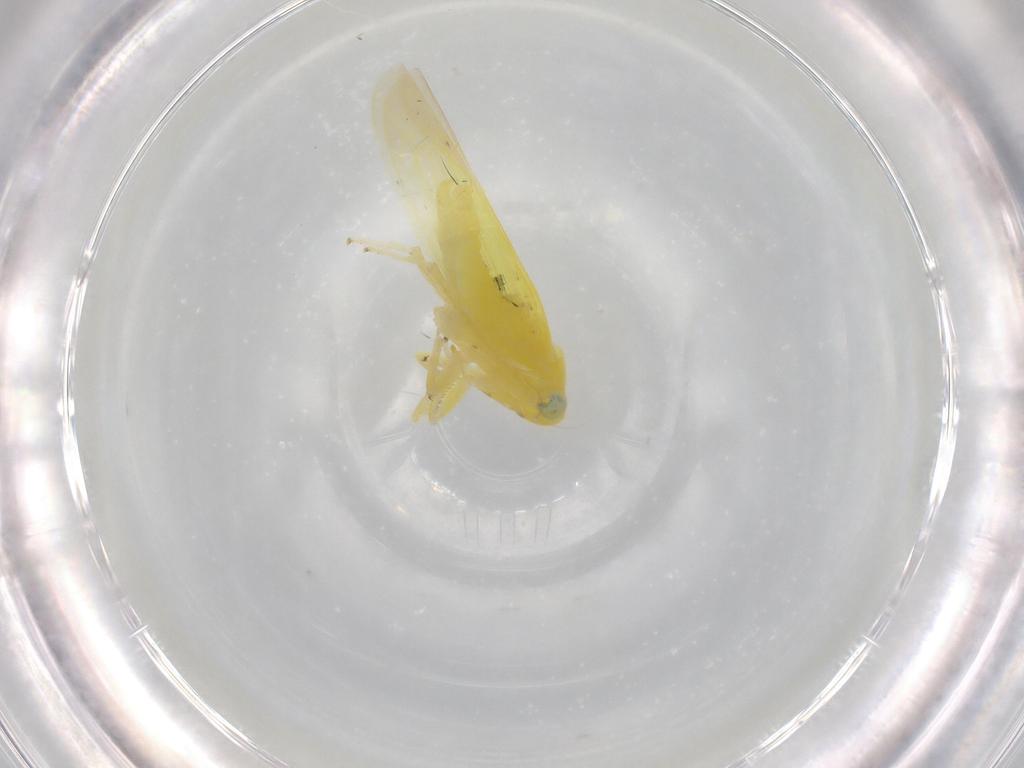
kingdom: Animalia
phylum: Arthropoda
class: Insecta
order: Hemiptera
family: Cicadellidae
